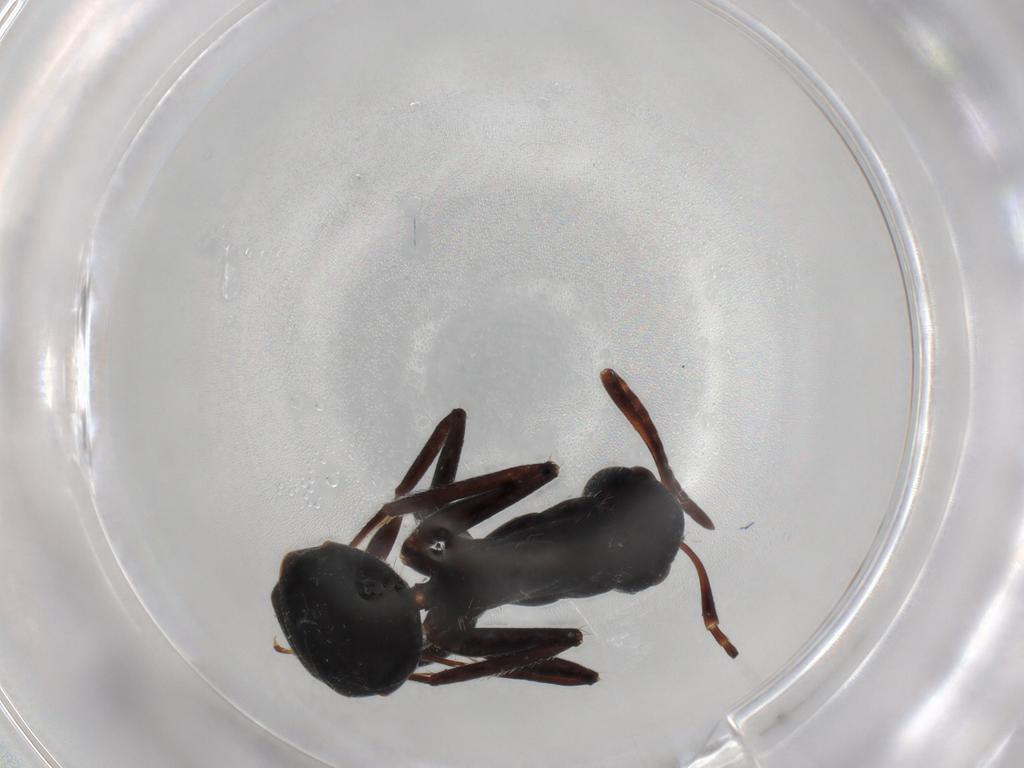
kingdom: Animalia
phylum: Arthropoda
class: Insecta
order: Hymenoptera
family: Formicidae
